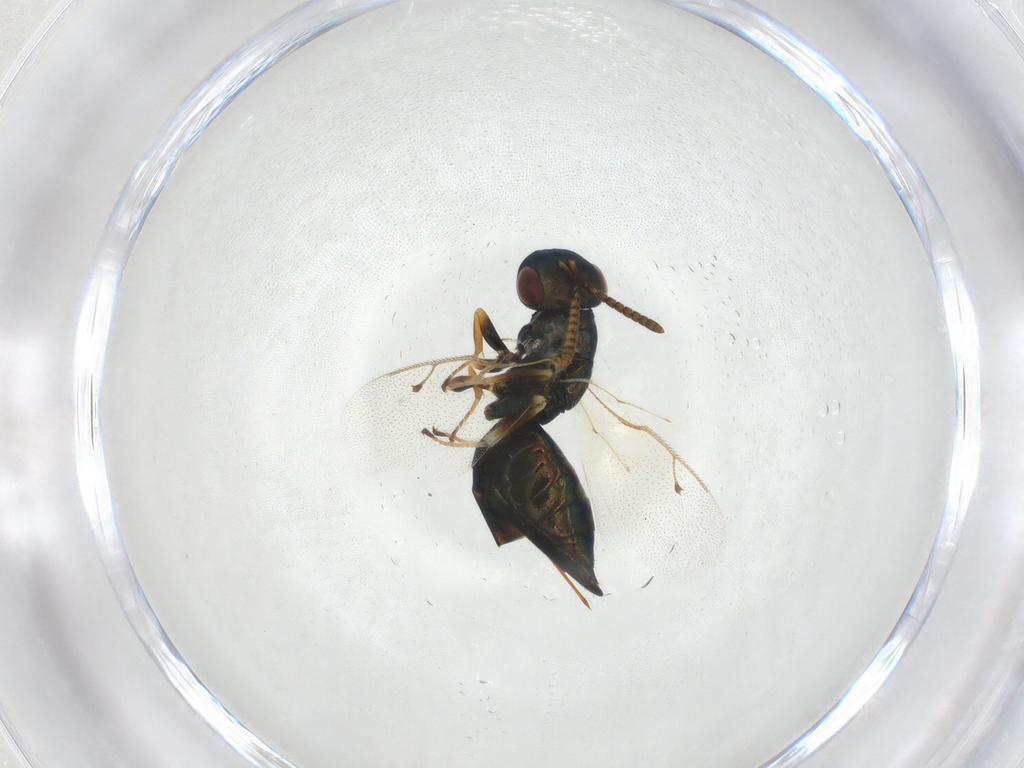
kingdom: Animalia
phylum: Arthropoda
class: Insecta
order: Hymenoptera
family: Pteromalidae
